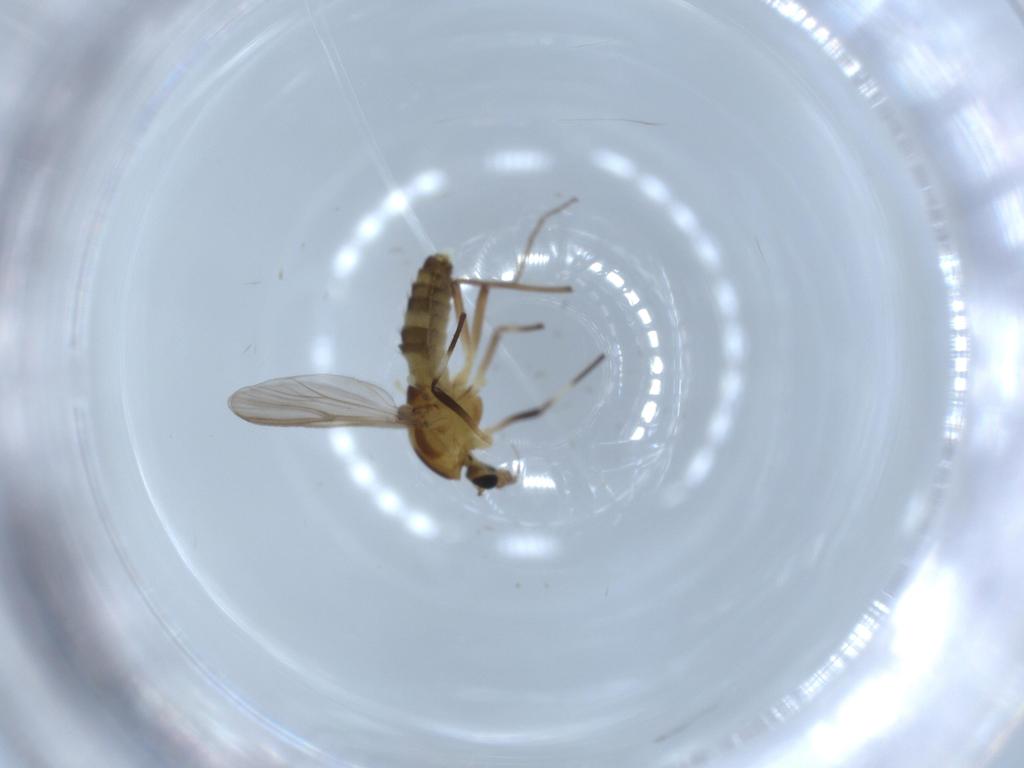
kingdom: Animalia
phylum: Arthropoda
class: Insecta
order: Diptera
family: Chironomidae
